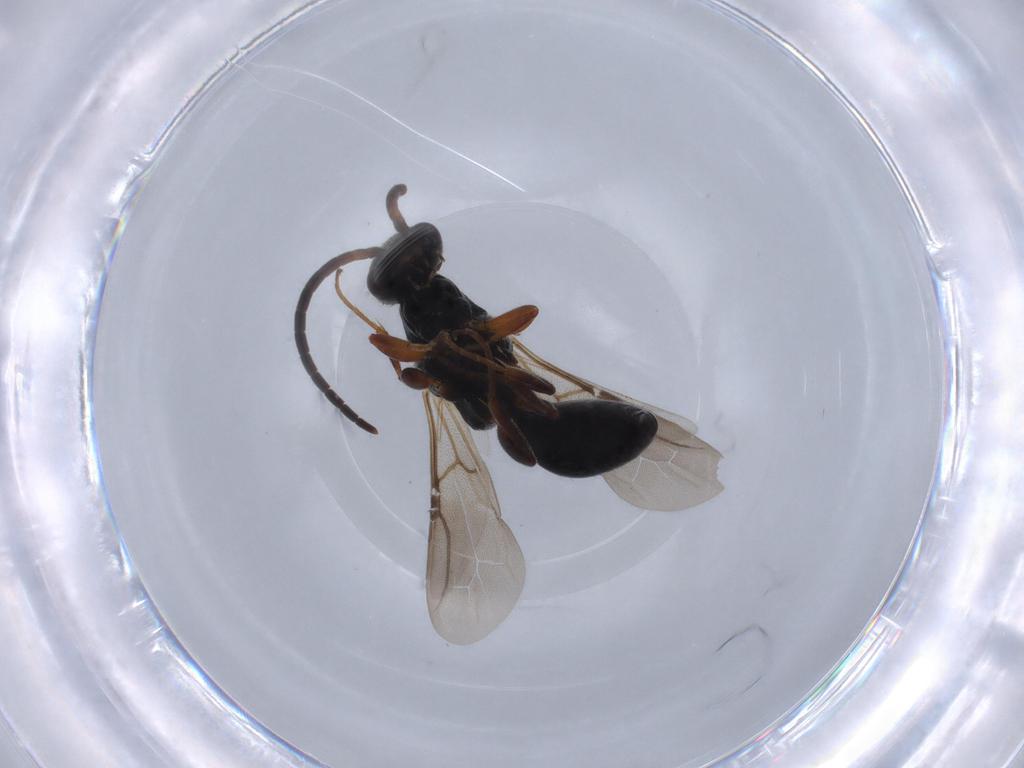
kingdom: Animalia
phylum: Arthropoda
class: Insecta
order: Hymenoptera
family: Bethylidae
